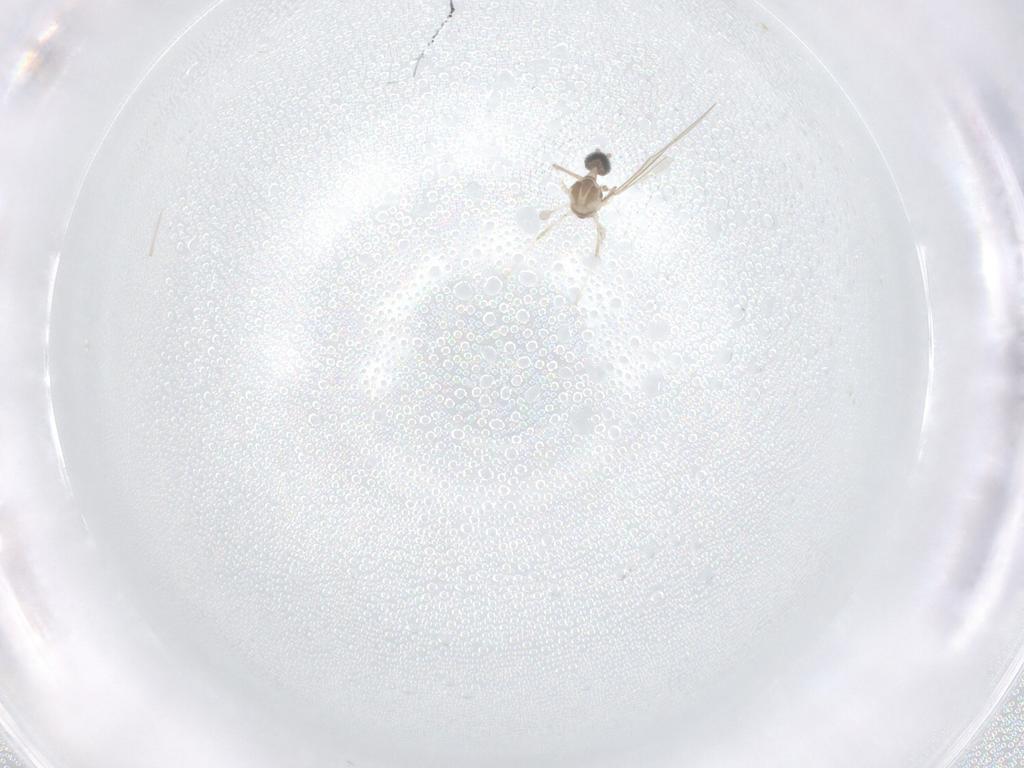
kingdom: Animalia
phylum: Arthropoda
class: Insecta
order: Diptera
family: Cecidomyiidae
